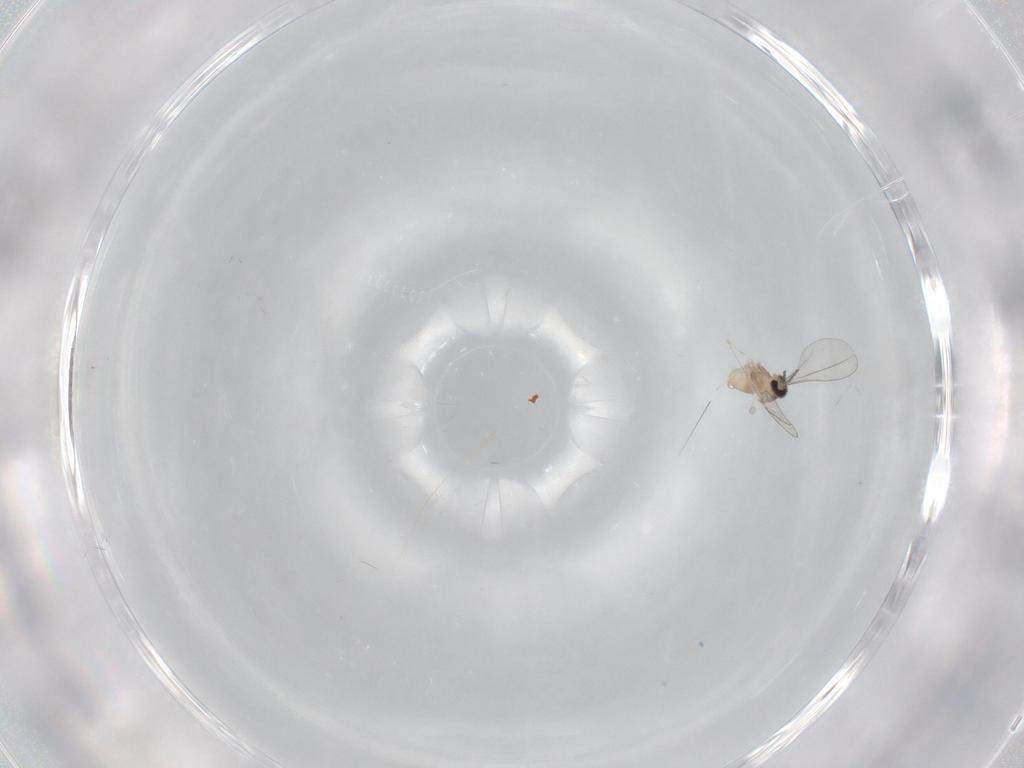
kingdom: Animalia
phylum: Arthropoda
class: Insecta
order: Diptera
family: Cecidomyiidae
